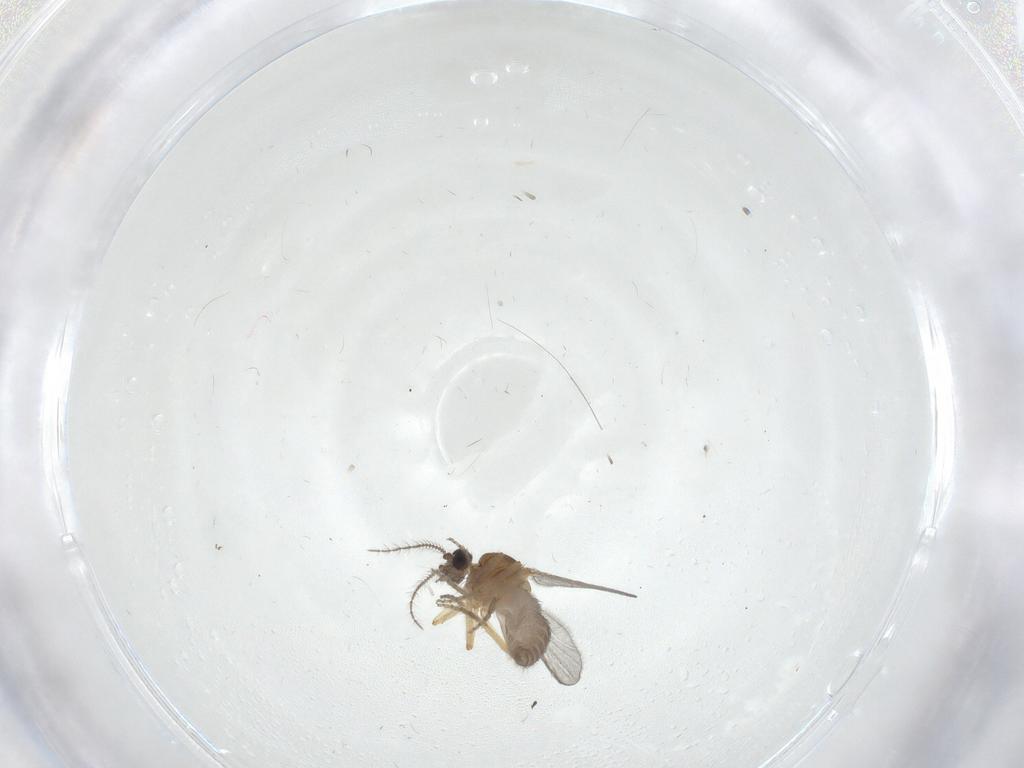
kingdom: Animalia
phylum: Arthropoda
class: Insecta
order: Diptera
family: Ceratopogonidae
